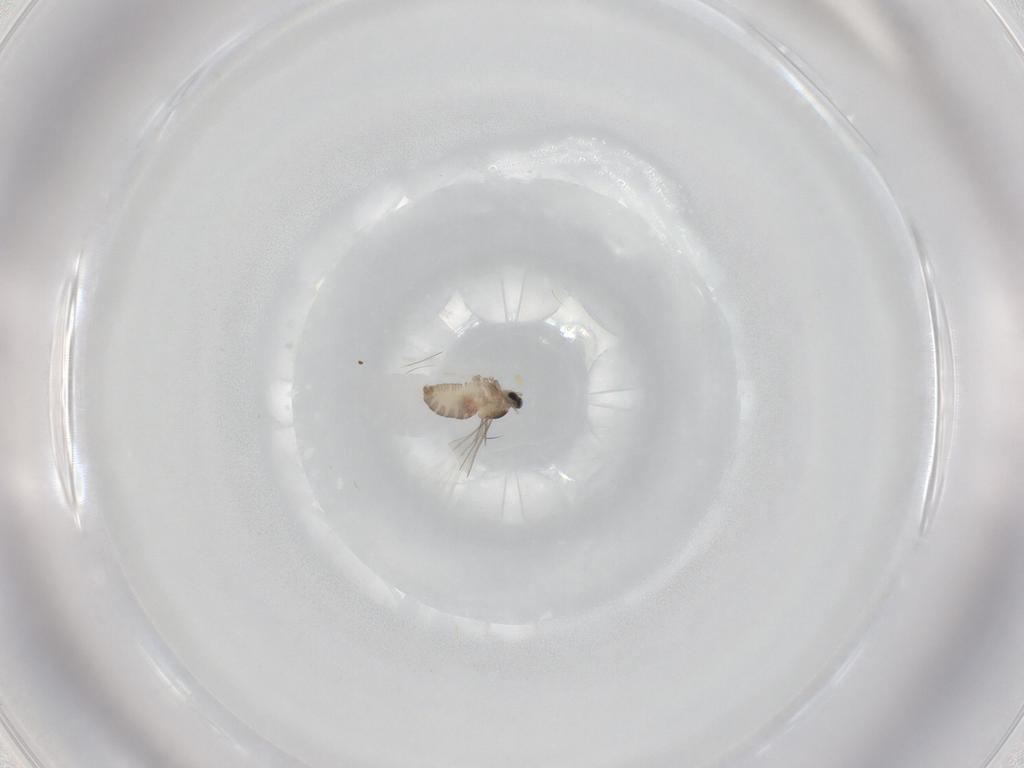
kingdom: Animalia
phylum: Arthropoda
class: Insecta
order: Diptera
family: Cecidomyiidae
